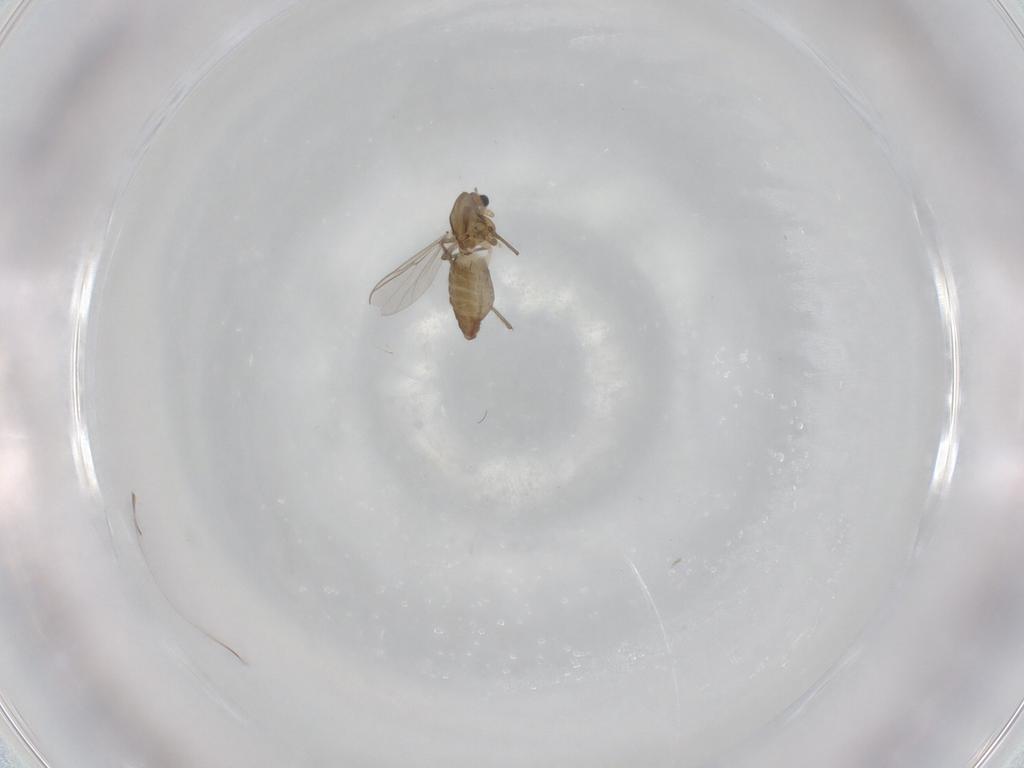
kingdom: Animalia
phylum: Arthropoda
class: Insecta
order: Diptera
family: Chironomidae
